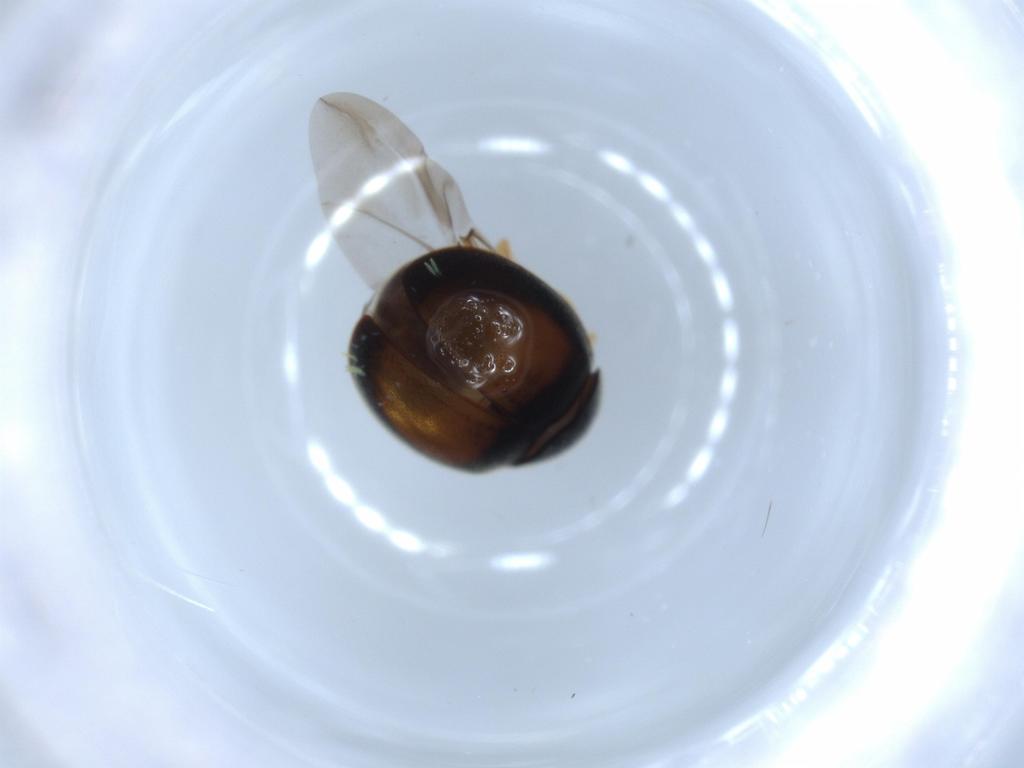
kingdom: Animalia
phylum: Arthropoda
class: Insecta
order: Coleoptera
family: Coccinellidae
